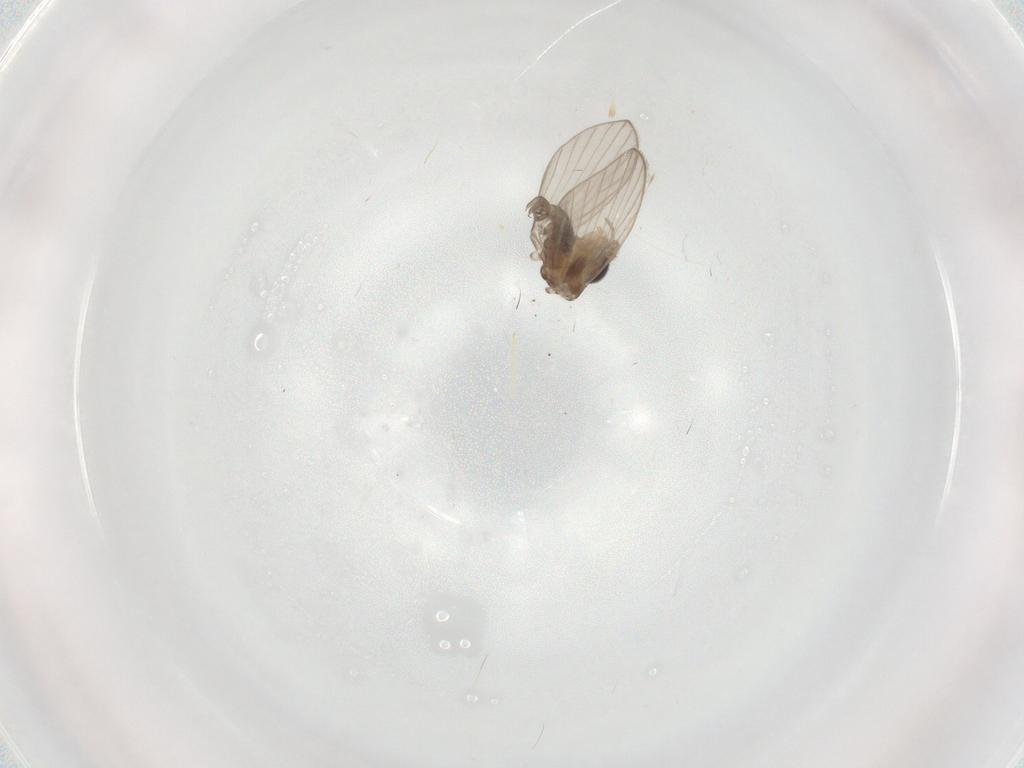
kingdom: Animalia
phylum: Arthropoda
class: Insecta
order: Diptera
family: Psychodidae
